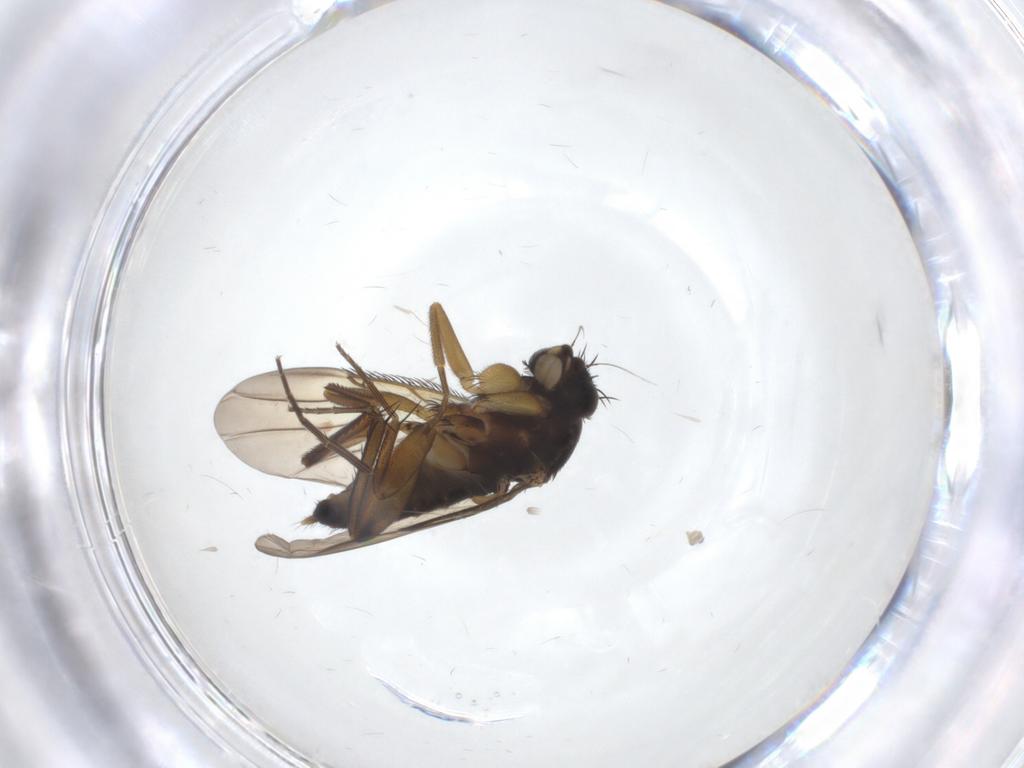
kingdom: Animalia
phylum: Arthropoda
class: Insecta
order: Diptera
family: Phoridae
